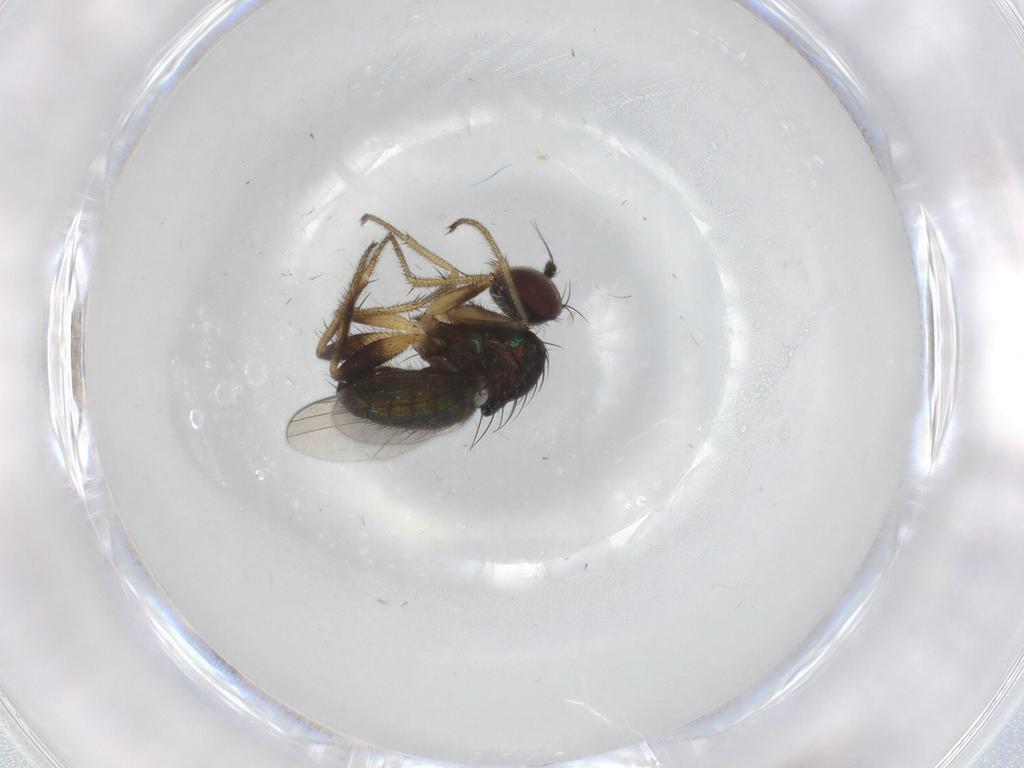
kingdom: Animalia
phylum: Arthropoda
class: Insecta
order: Diptera
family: Dolichopodidae
